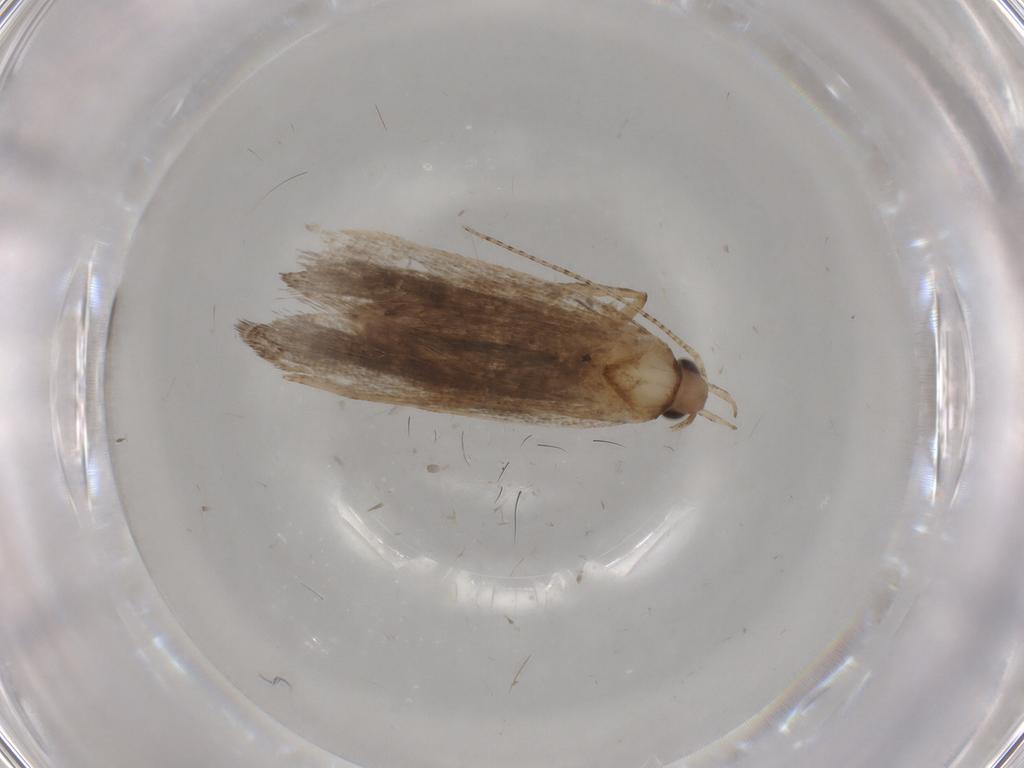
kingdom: Animalia
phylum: Arthropoda
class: Insecta
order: Lepidoptera
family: Gelechiidae
